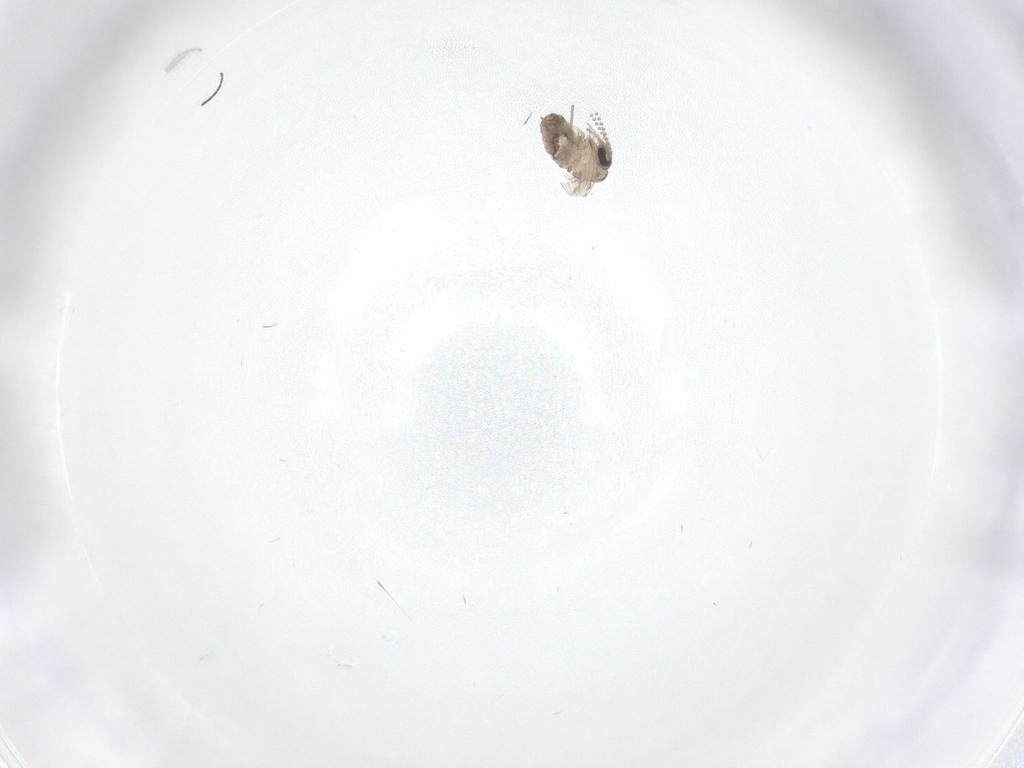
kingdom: Animalia
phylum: Arthropoda
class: Insecta
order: Diptera
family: Psychodidae
